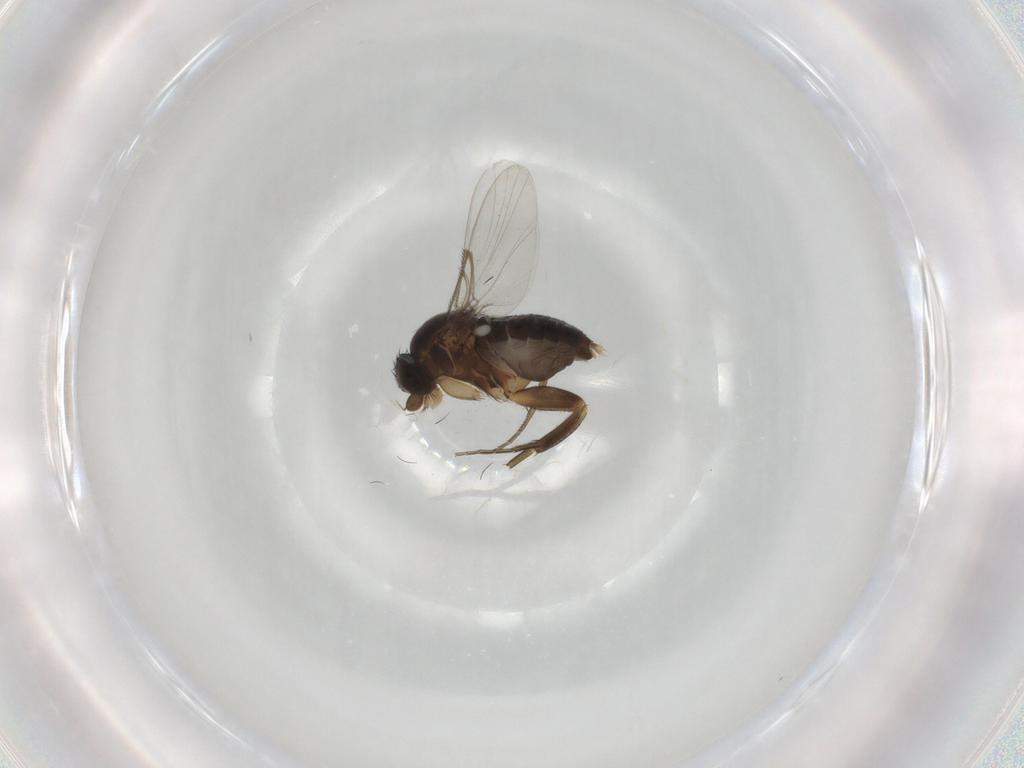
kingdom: Animalia
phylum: Arthropoda
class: Insecta
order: Diptera
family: Phoridae
